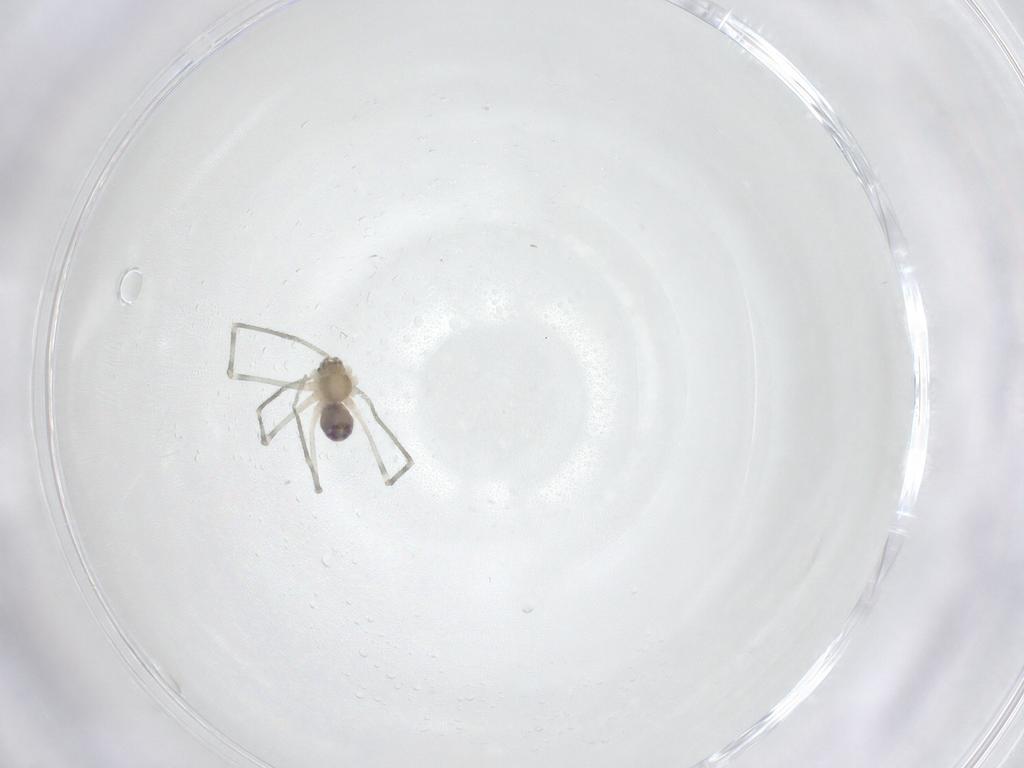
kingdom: Animalia
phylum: Arthropoda
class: Arachnida
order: Araneae
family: Pholcidae
